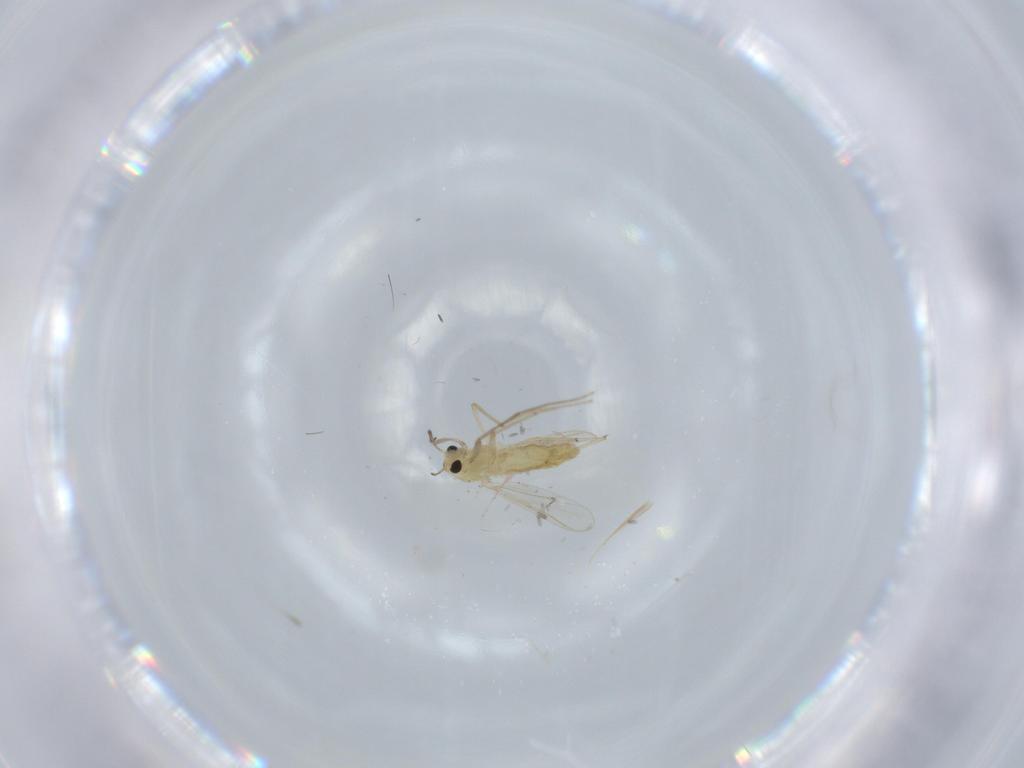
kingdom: Animalia
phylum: Arthropoda
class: Insecta
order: Diptera
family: Chironomidae
